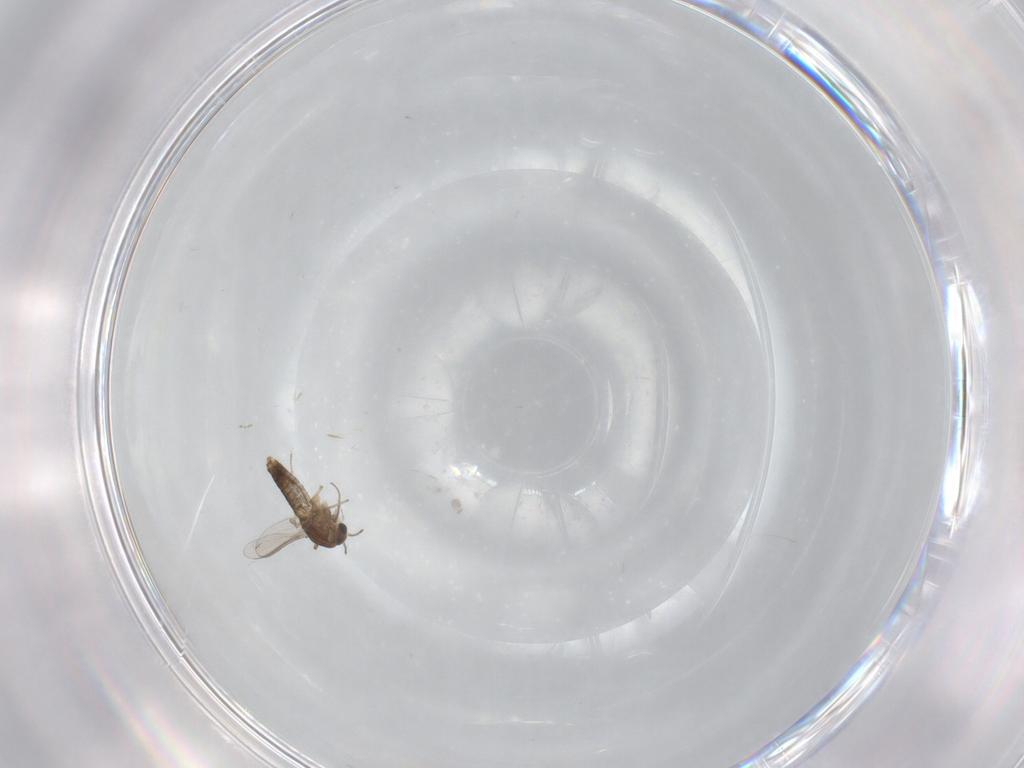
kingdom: Animalia
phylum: Arthropoda
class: Insecta
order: Diptera
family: Chironomidae
